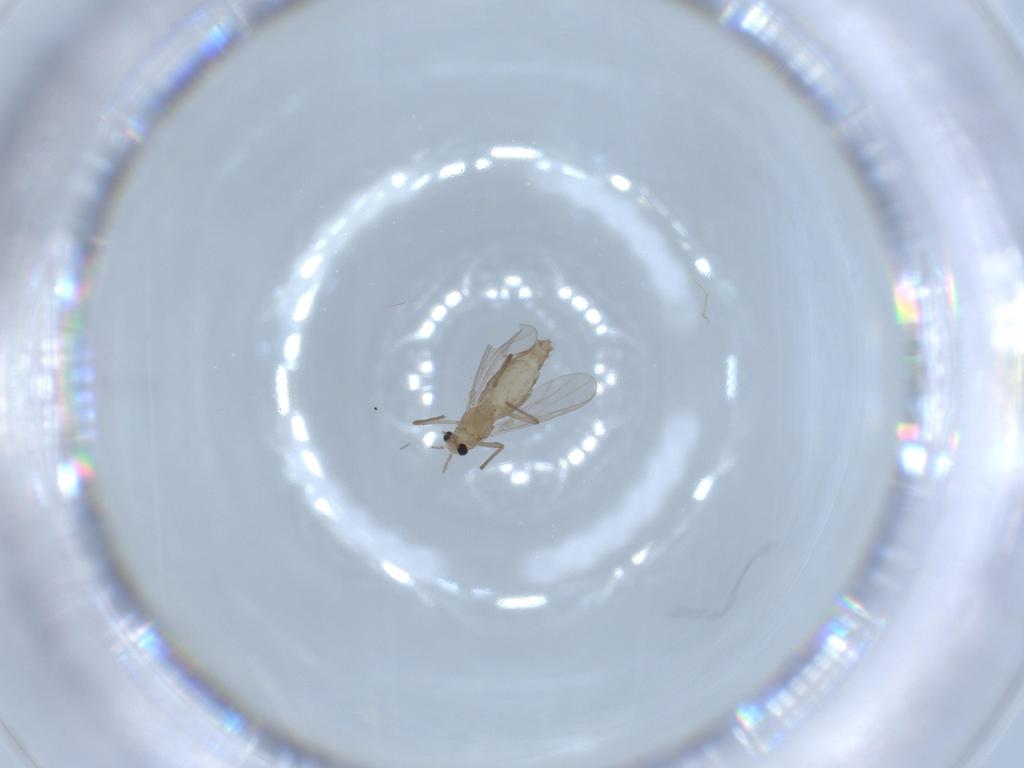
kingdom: Animalia
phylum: Arthropoda
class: Insecta
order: Diptera
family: Chironomidae
